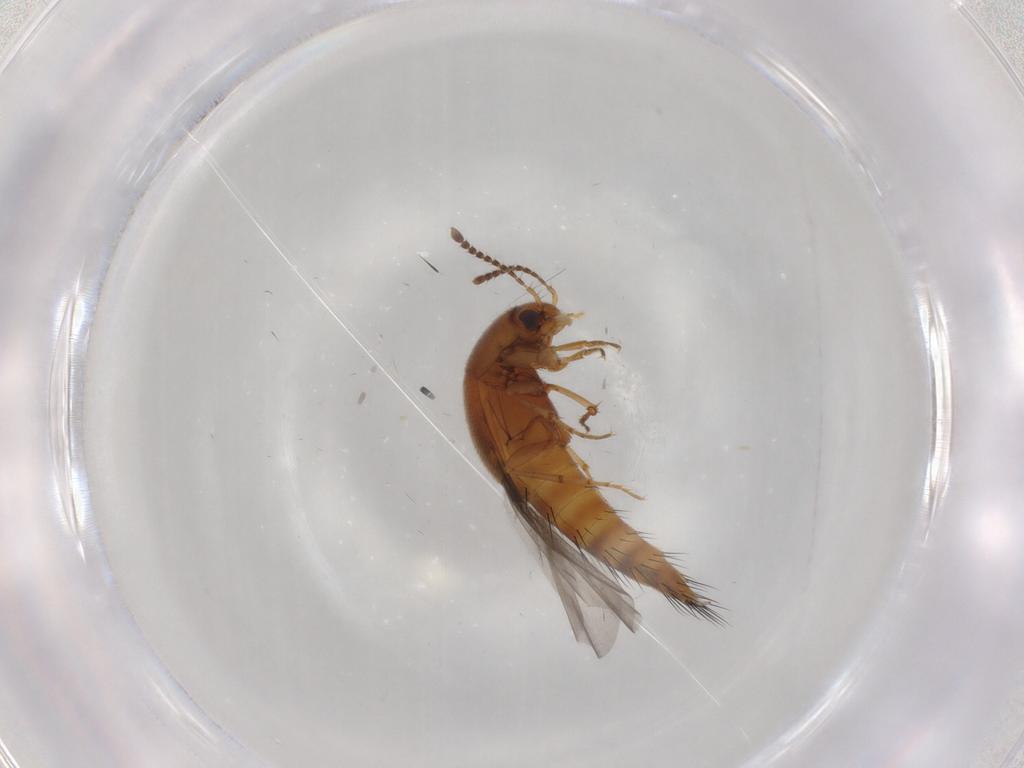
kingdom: Animalia
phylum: Arthropoda
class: Insecta
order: Coleoptera
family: Staphylinidae
